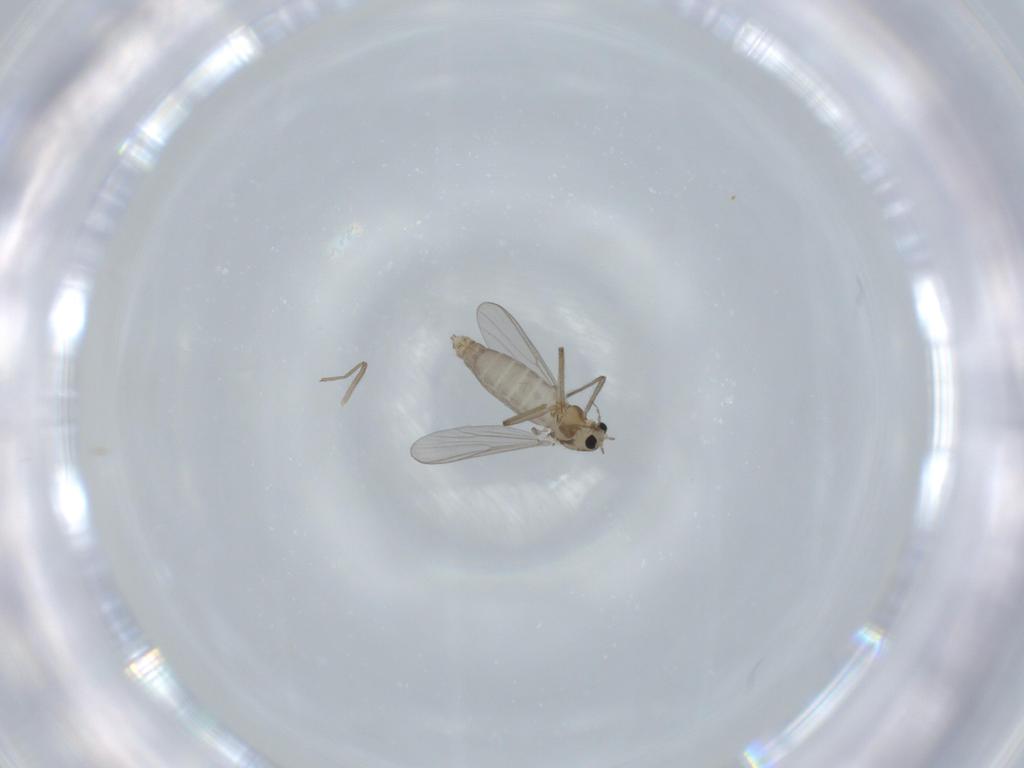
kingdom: Animalia
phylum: Arthropoda
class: Insecta
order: Diptera
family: Chironomidae
